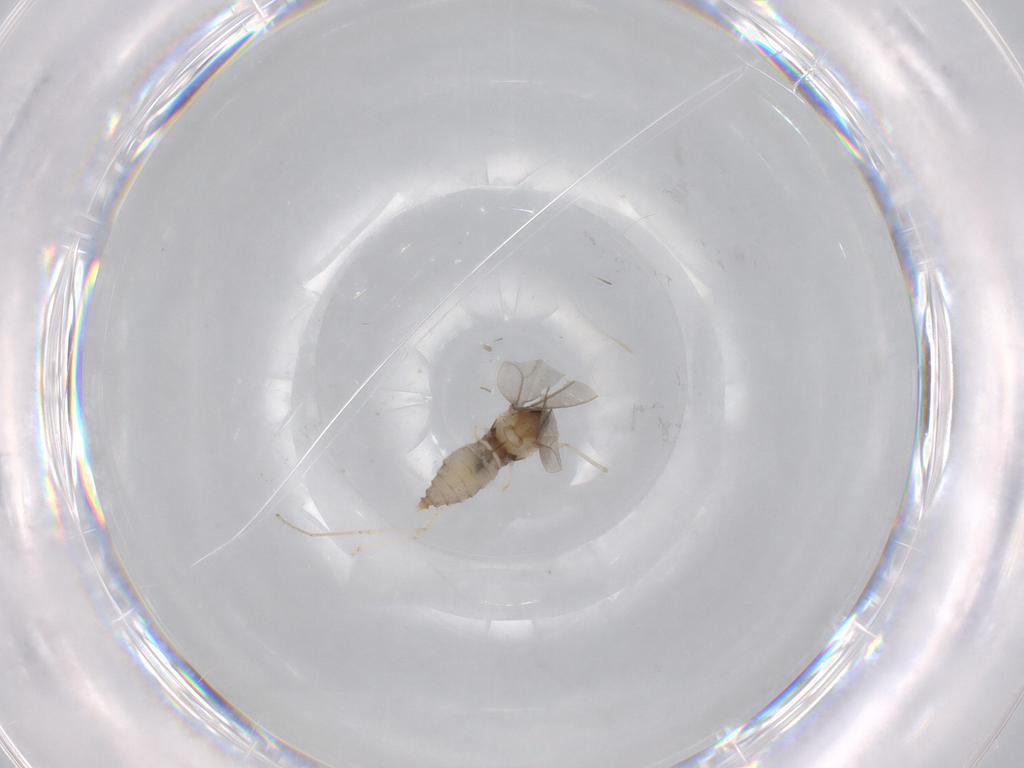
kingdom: Animalia
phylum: Arthropoda
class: Insecta
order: Diptera
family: Cecidomyiidae
